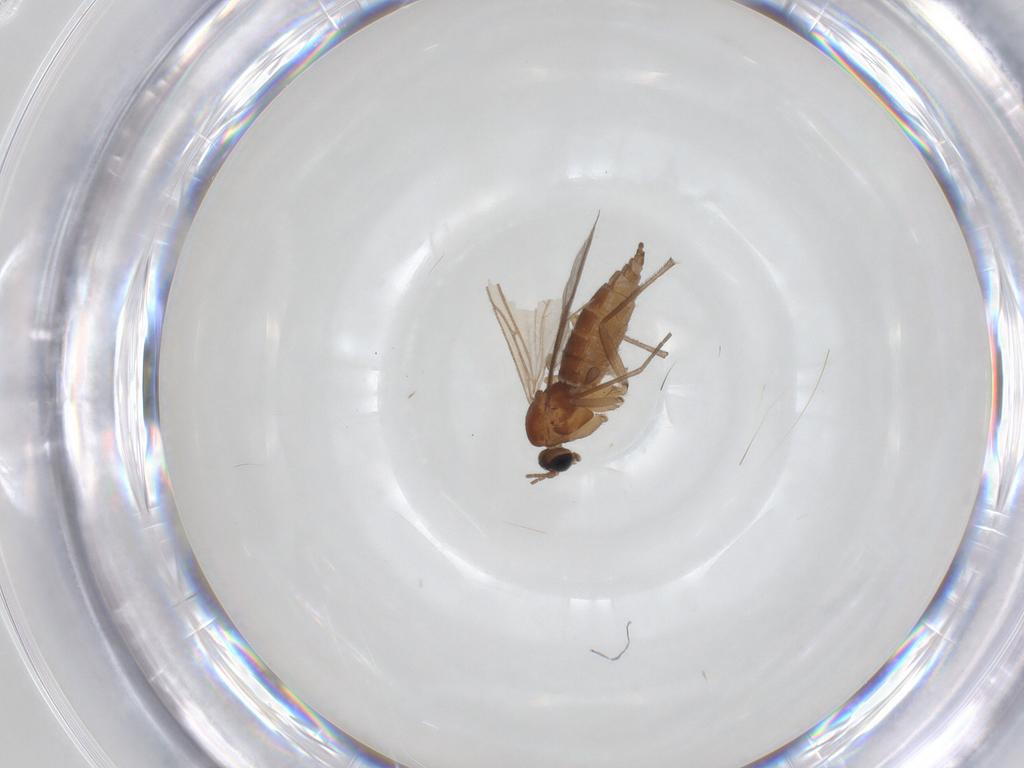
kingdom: Animalia
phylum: Arthropoda
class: Insecta
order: Diptera
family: Sciaridae
